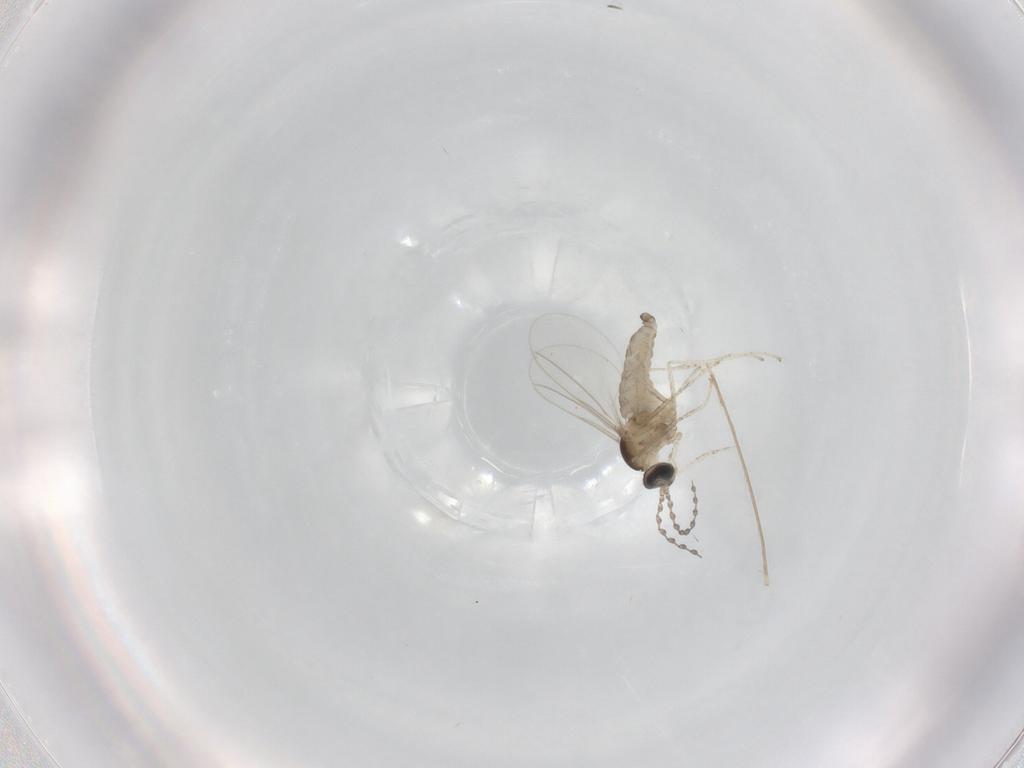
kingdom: Animalia
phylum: Arthropoda
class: Insecta
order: Diptera
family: Cecidomyiidae
